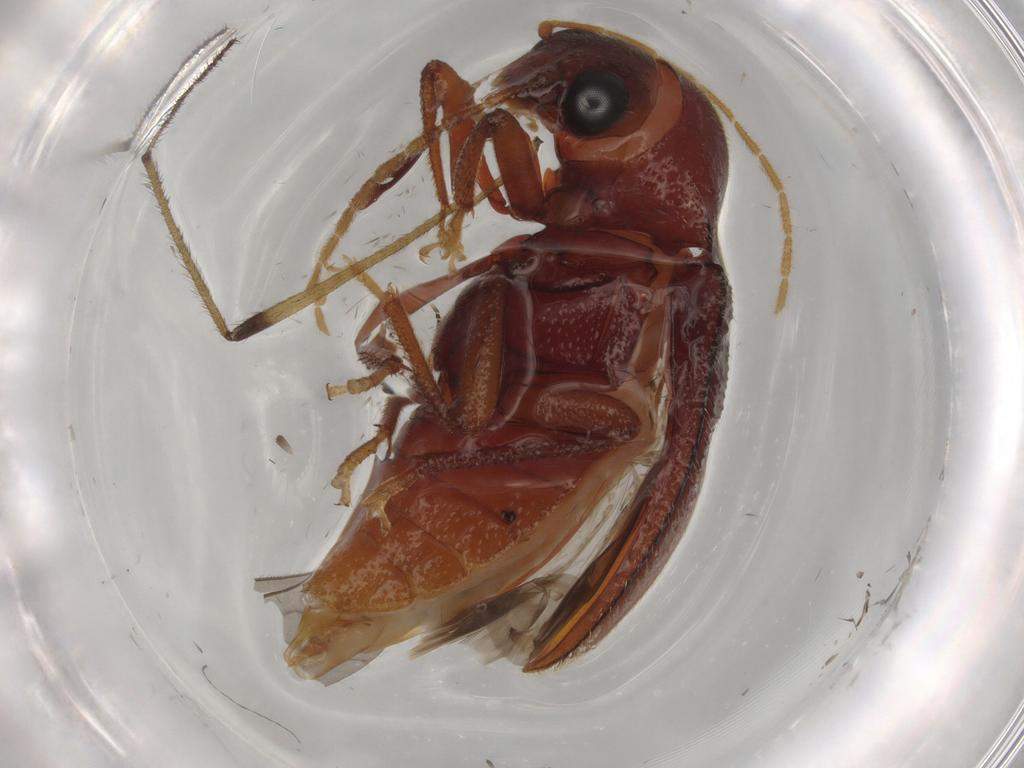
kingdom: Animalia
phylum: Arthropoda
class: Insecta
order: Coleoptera
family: Ptilodactylidae
